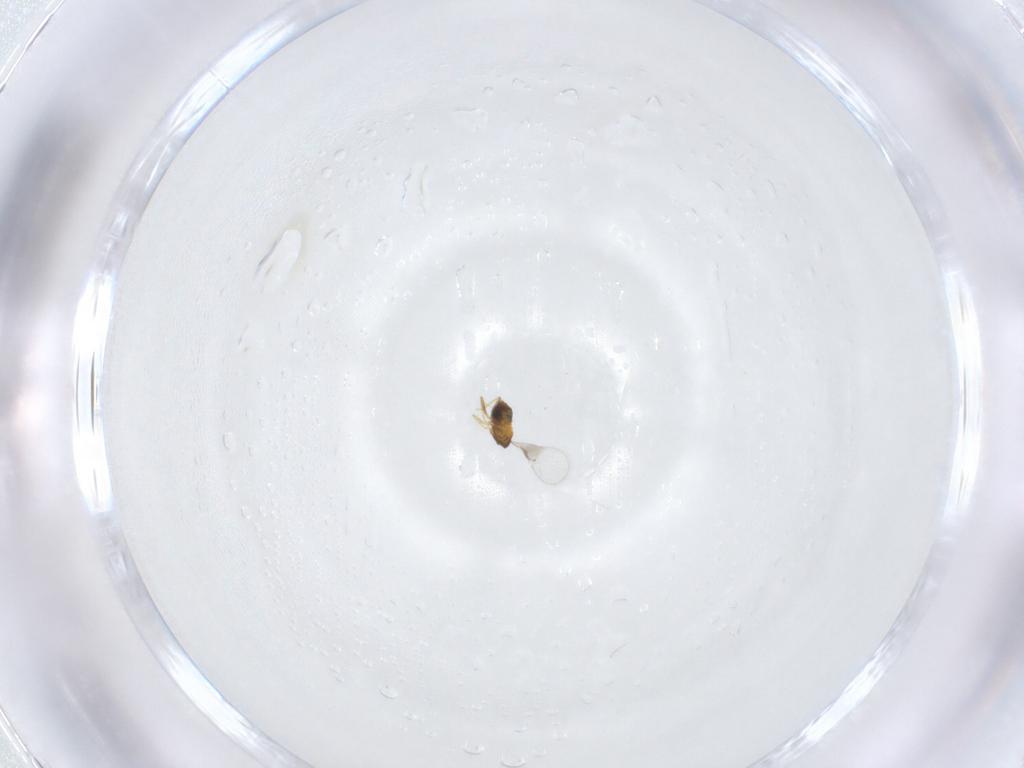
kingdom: Animalia
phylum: Arthropoda
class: Insecta
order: Hymenoptera
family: Trichogrammatidae
